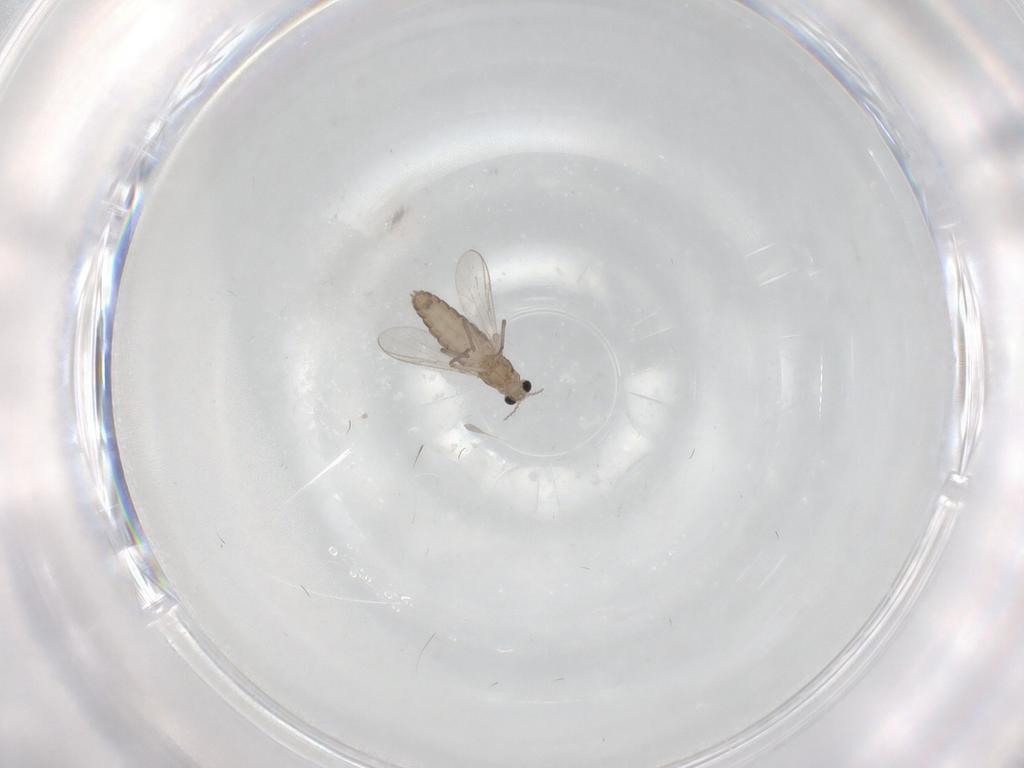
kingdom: Animalia
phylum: Arthropoda
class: Insecta
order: Diptera
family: Chironomidae
